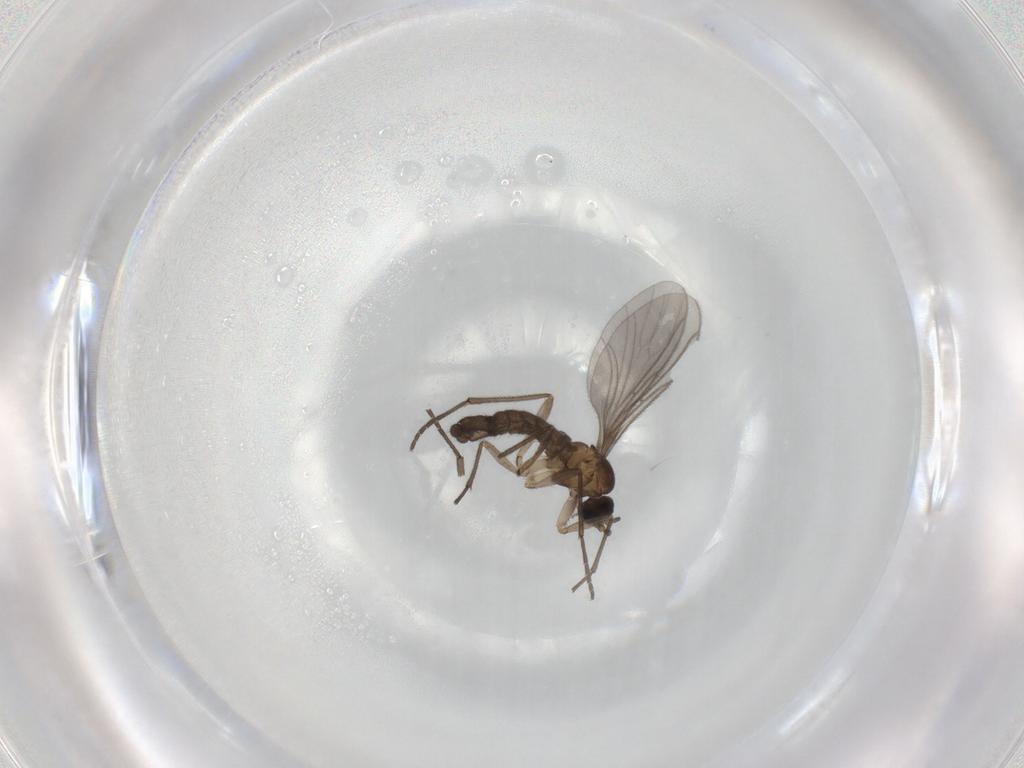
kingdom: Animalia
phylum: Arthropoda
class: Insecta
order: Diptera
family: Sciaridae
